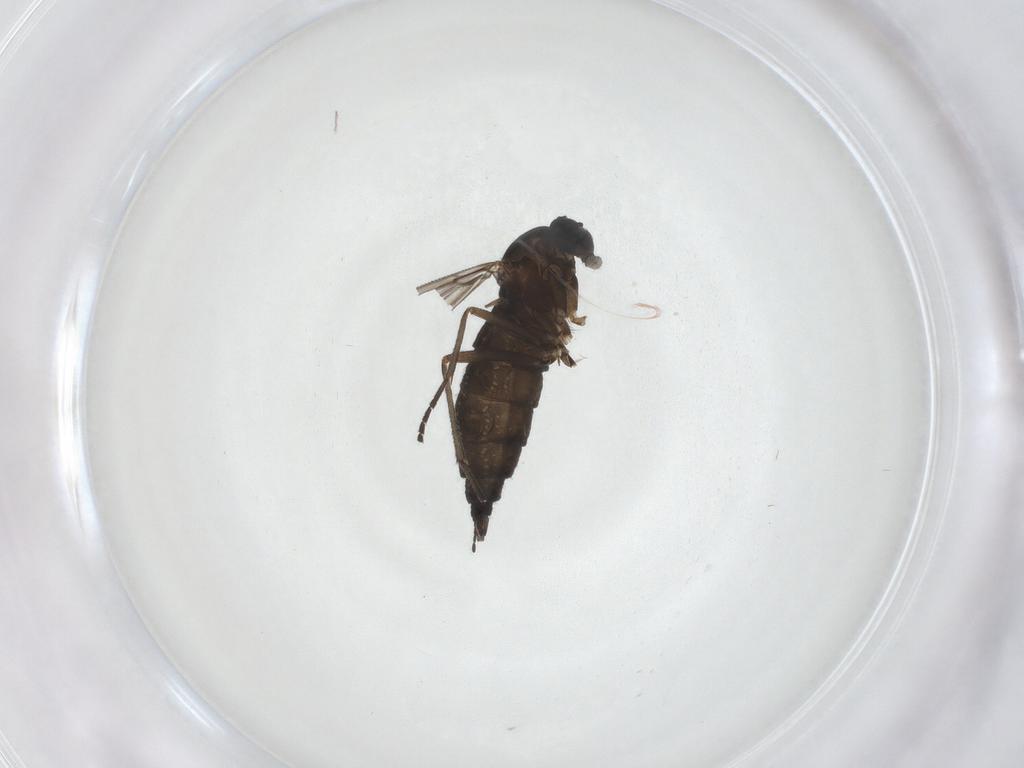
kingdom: Animalia
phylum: Arthropoda
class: Insecta
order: Diptera
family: Sciaridae
